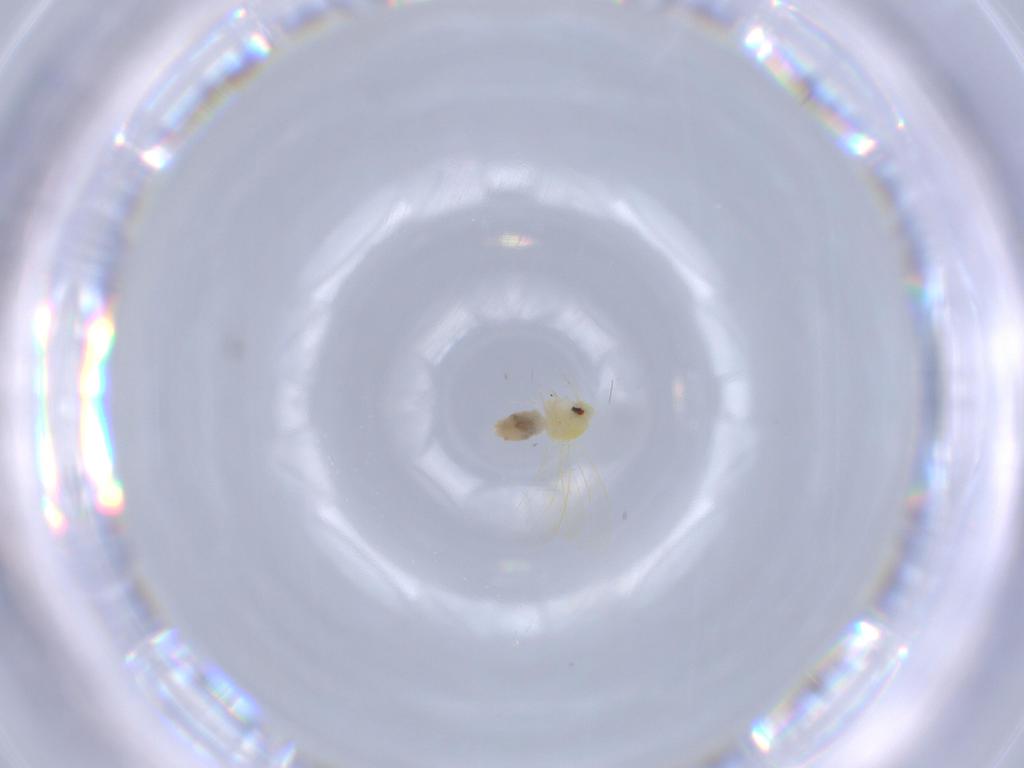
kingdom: Animalia
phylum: Arthropoda
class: Insecta
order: Hemiptera
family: Aleyrodidae
